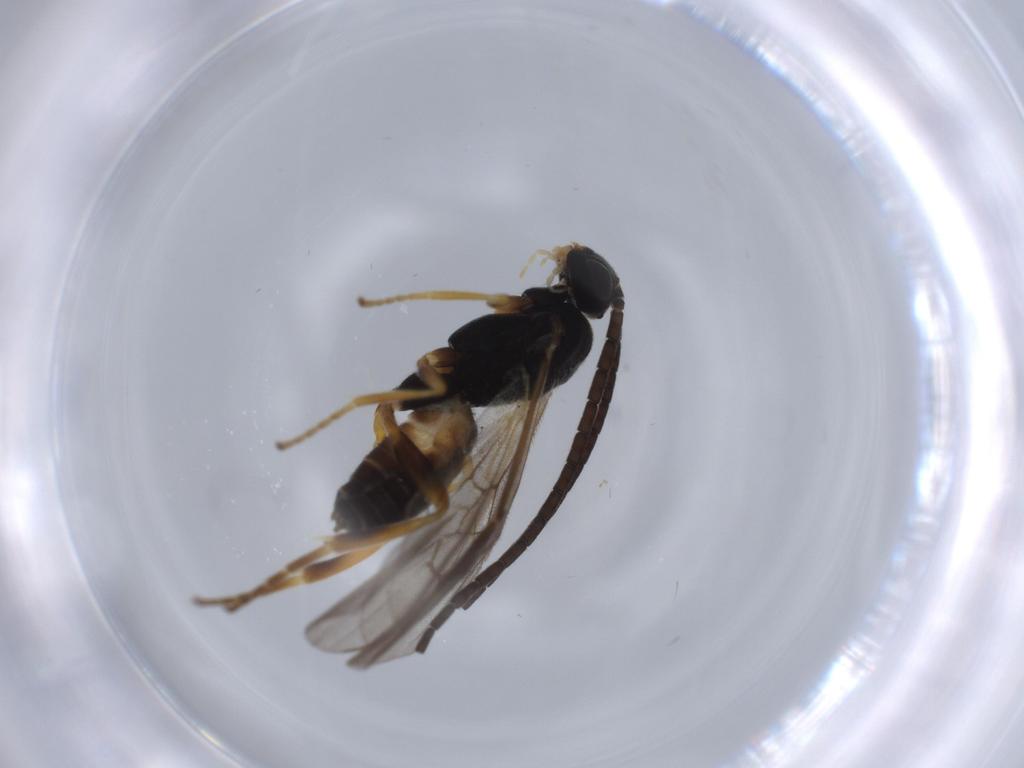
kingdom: Animalia
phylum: Arthropoda
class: Insecta
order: Hymenoptera
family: Braconidae
